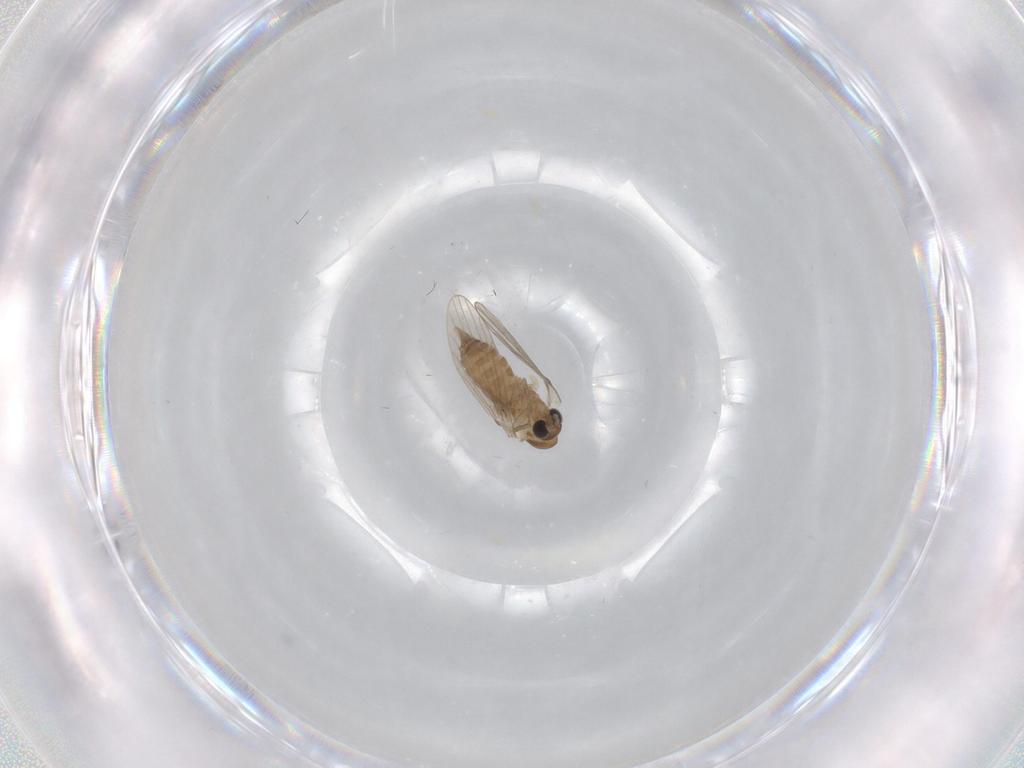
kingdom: Animalia
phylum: Arthropoda
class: Insecta
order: Diptera
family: Psychodidae
